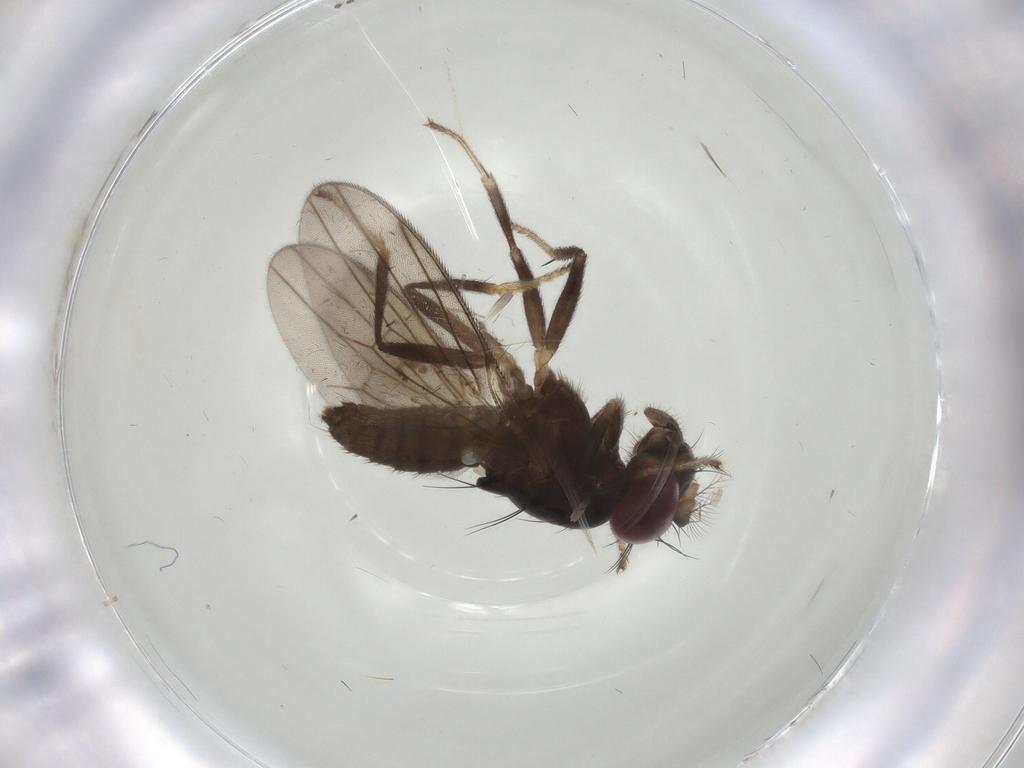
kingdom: Animalia
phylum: Arthropoda
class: Insecta
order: Diptera
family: Drosophilidae
